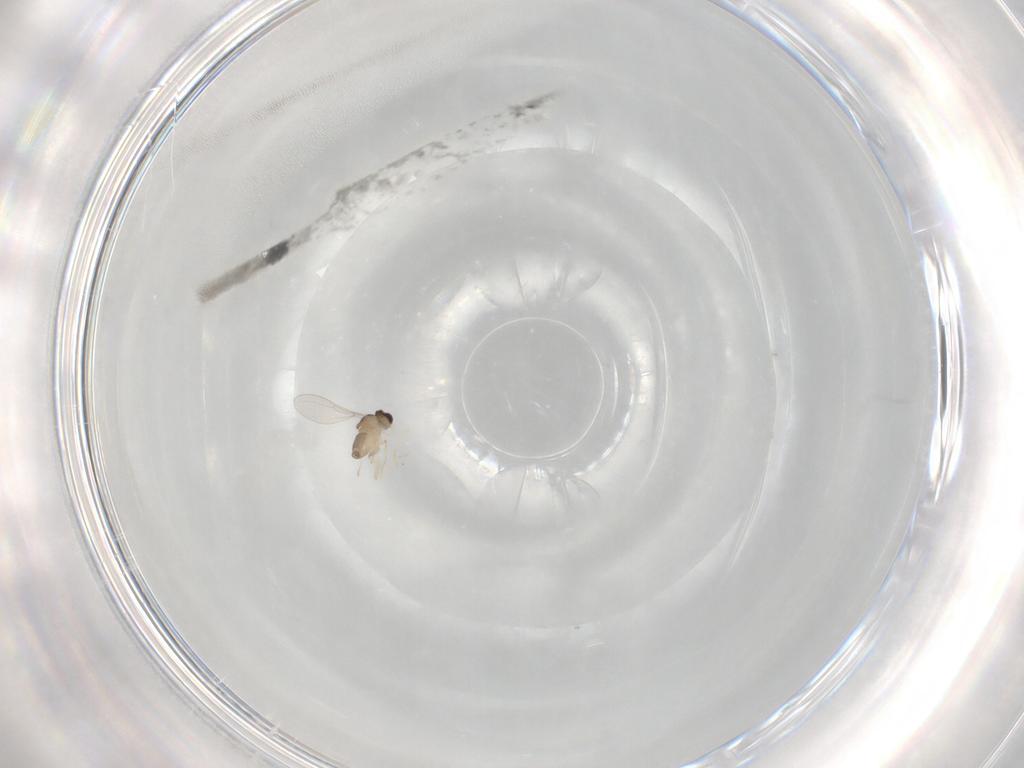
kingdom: Animalia
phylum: Arthropoda
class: Insecta
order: Diptera
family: Cecidomyiidae
